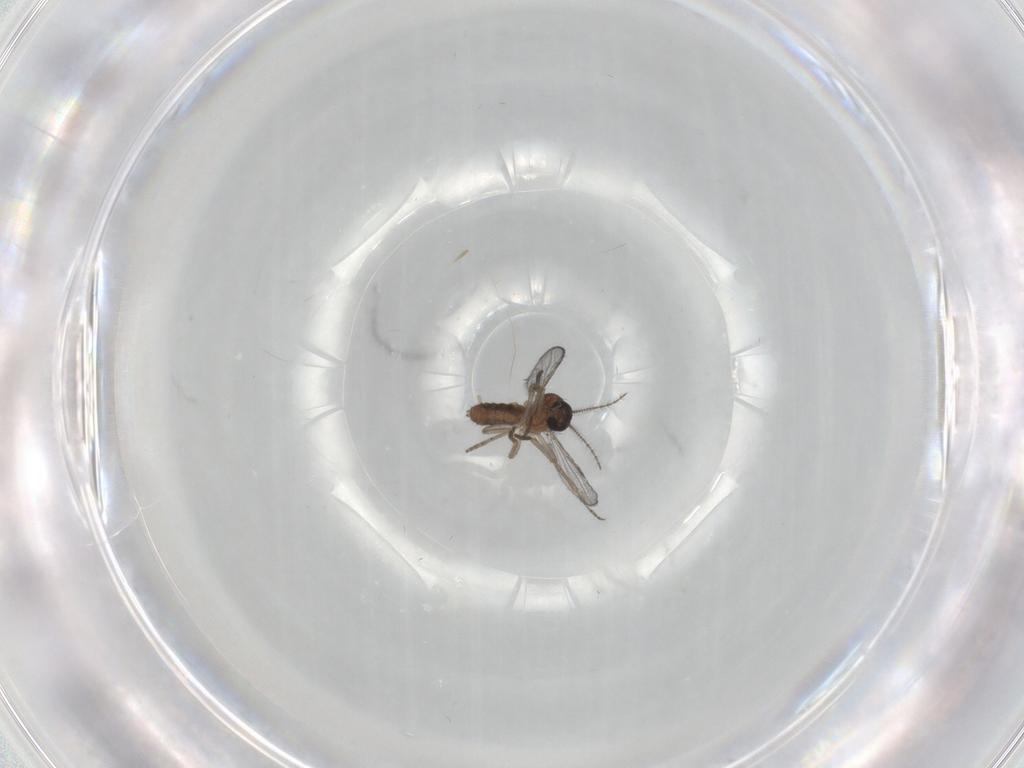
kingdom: Animalia
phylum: Arthropoda
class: Insecta
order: Diptera
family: Ceratopogonidae
